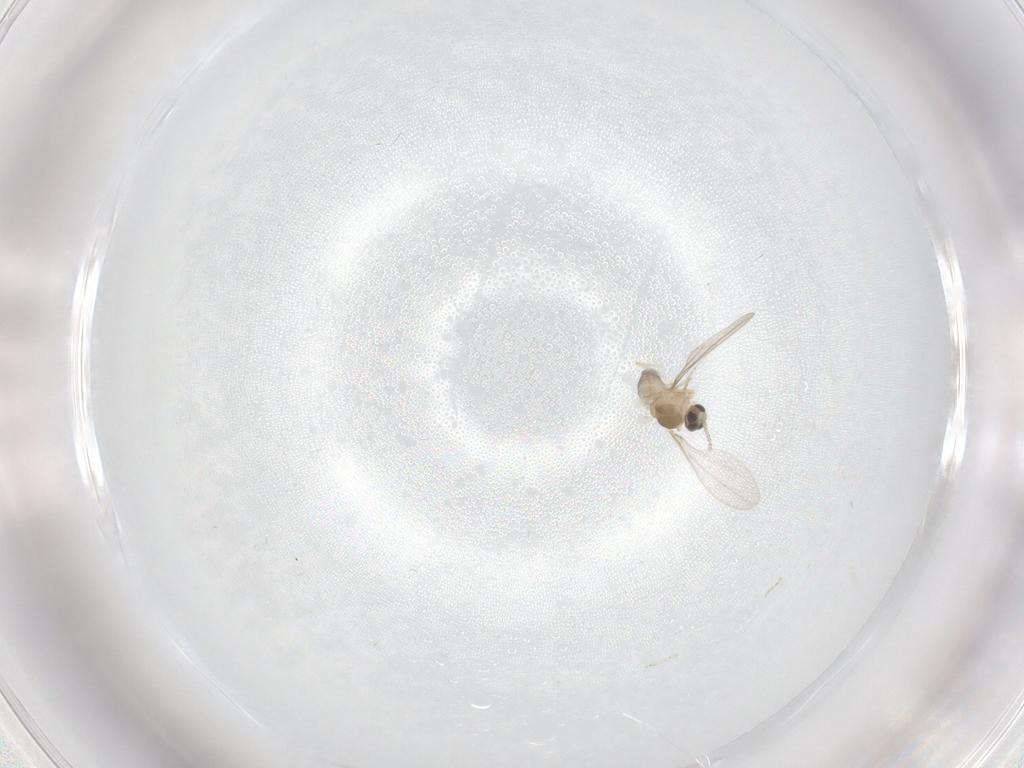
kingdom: Animalia
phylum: Arthropoda
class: Insecta
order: Diptera
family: Cecidomyiidae
